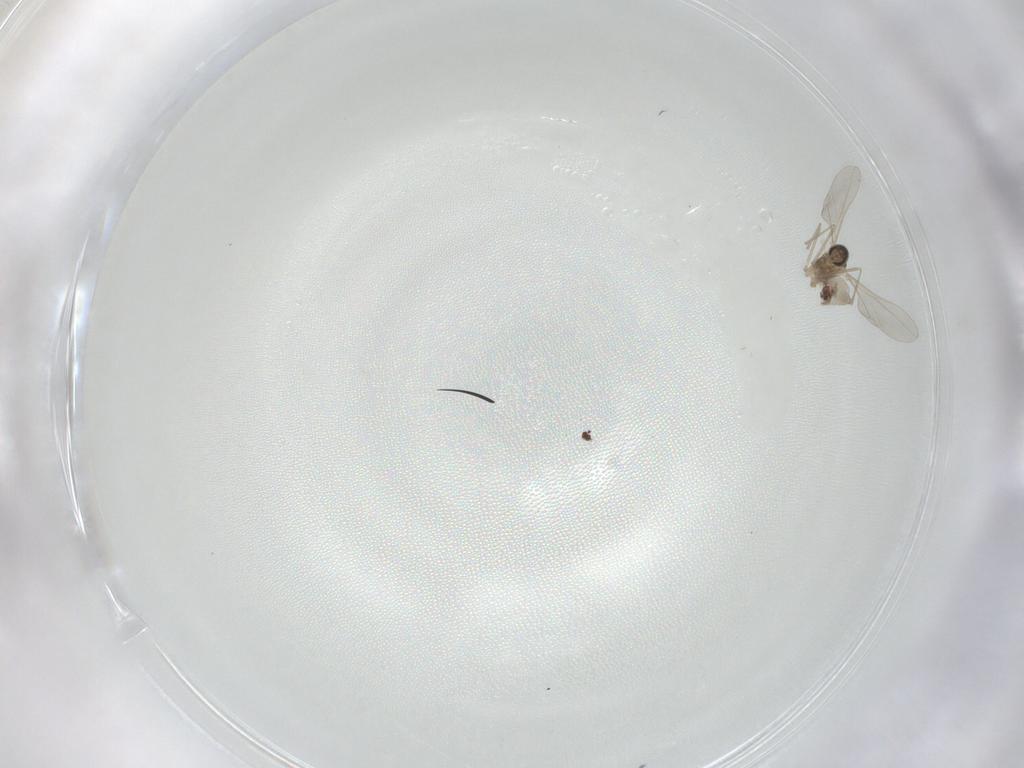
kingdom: Animalia
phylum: Arthropoda
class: Insecta
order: Diptera
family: Cecidomyiidae
